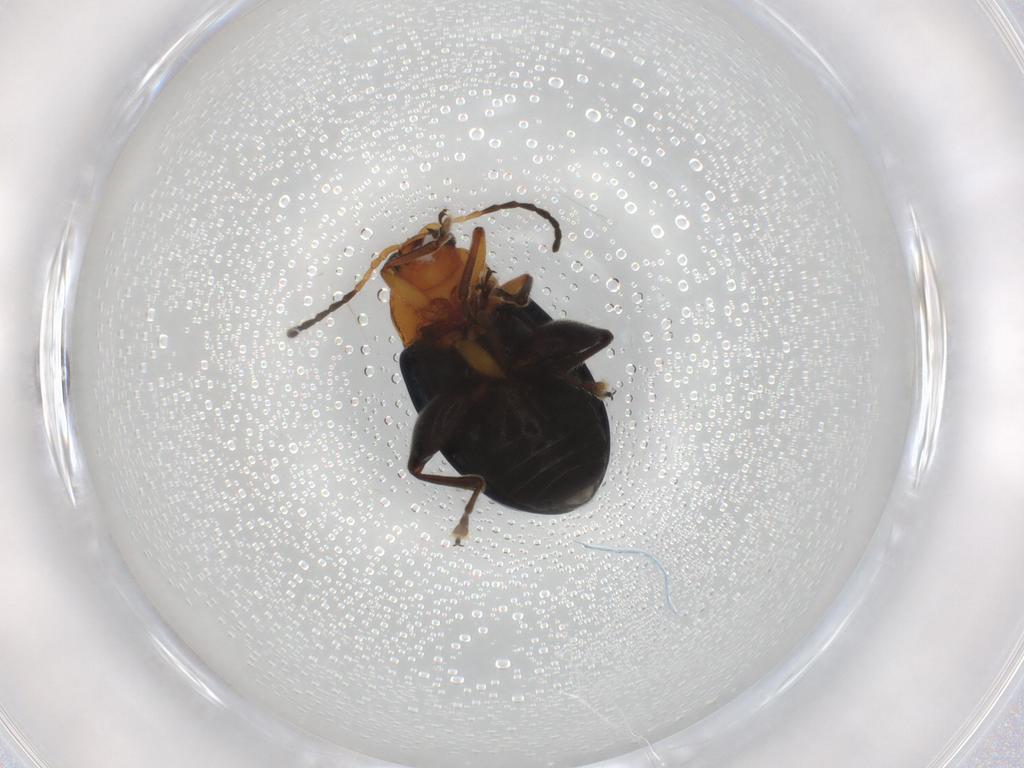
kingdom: Animalia
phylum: Arthropoda
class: Insecta
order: Coleoptera
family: Chrysomelidae
